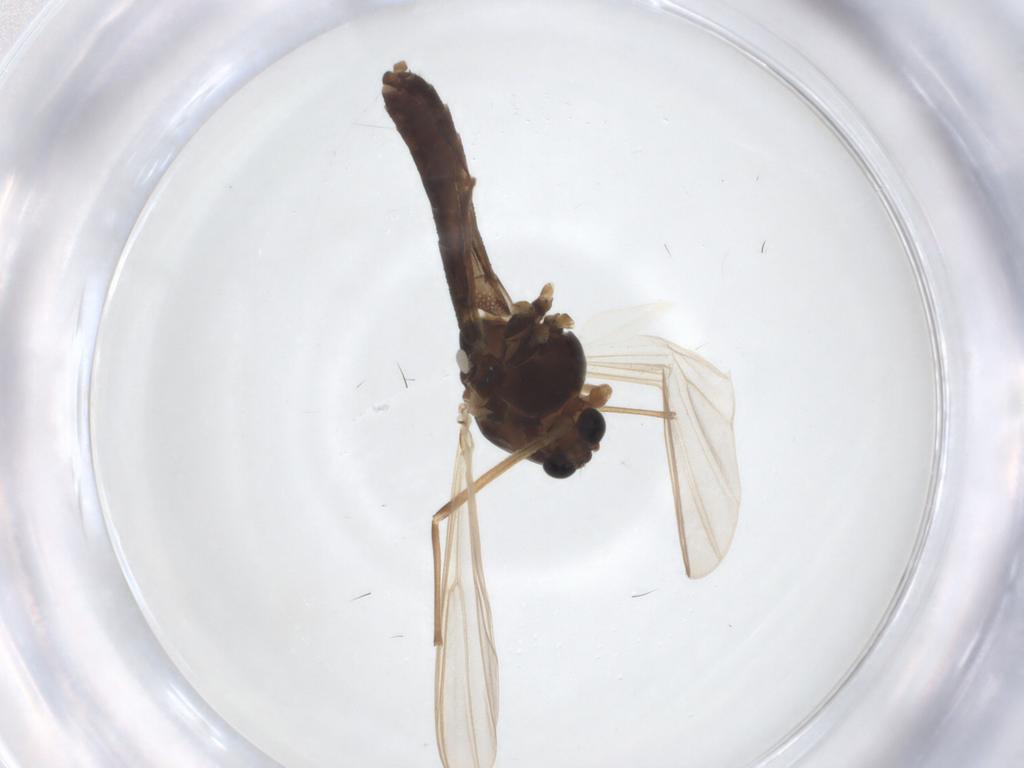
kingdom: Animalia
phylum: Arthropoda
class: Insecta
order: Diptera
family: Chironomidae
